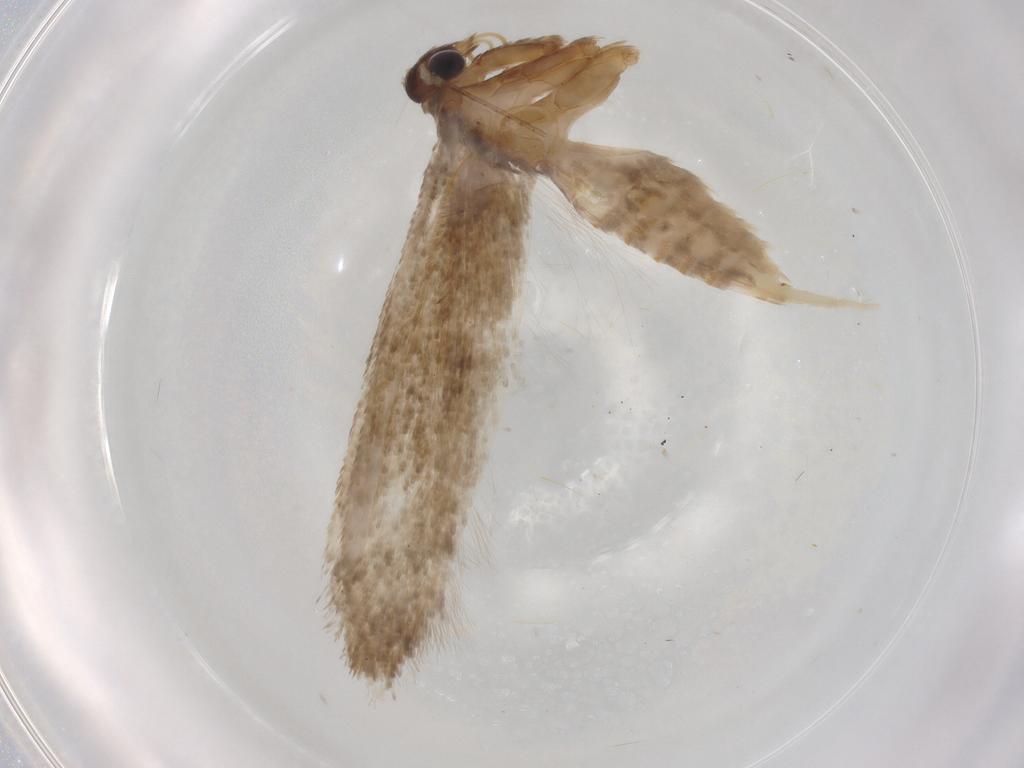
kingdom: Animalia
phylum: Arthropoda
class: Insecta
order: Lepidoptera
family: Blastobasidae
